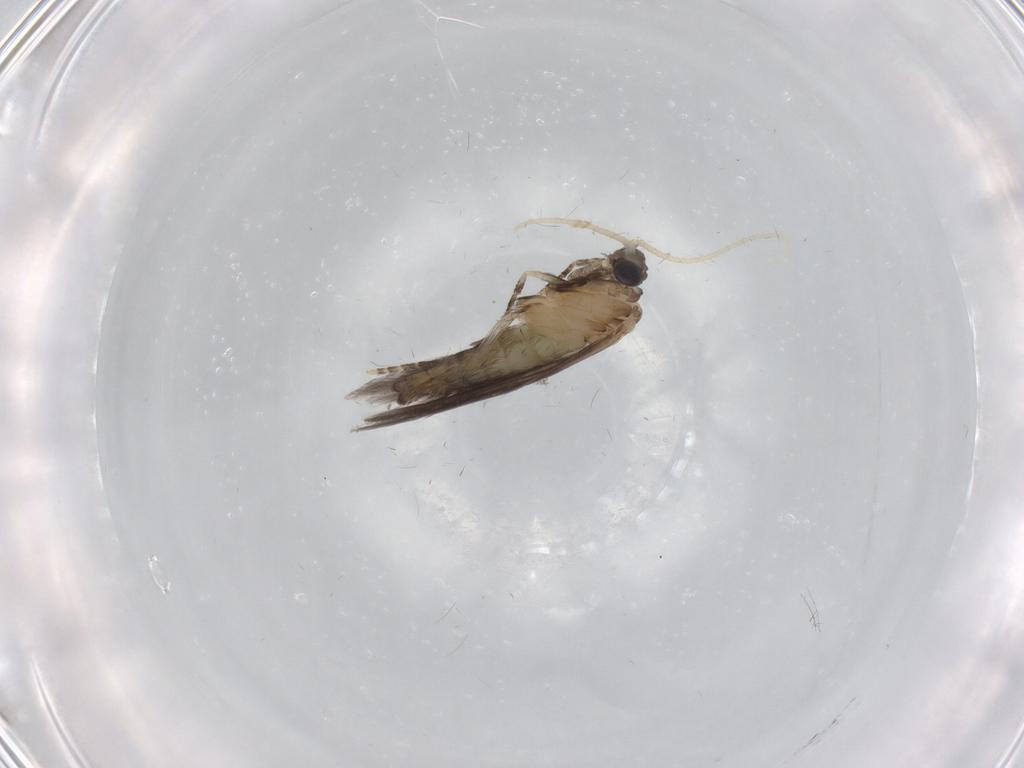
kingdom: Animalia
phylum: Arthropoda
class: Insecta
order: Trichoptera
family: Hydroptilidae
